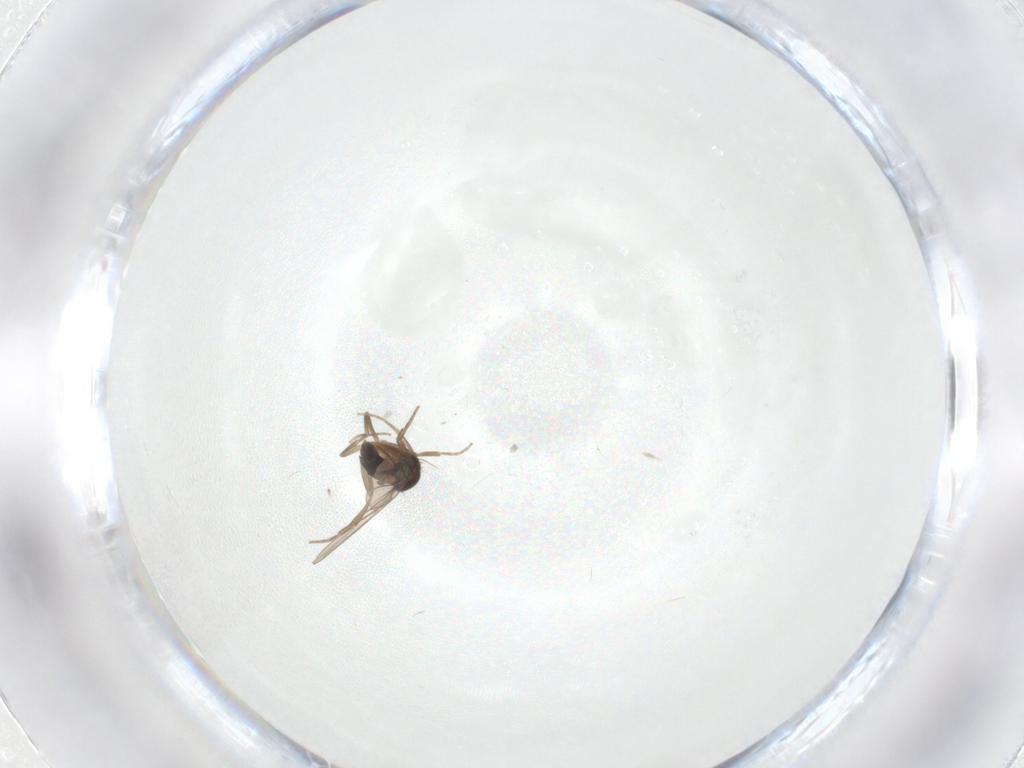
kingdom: Animalia
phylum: Arthropoda
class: Insecta
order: Diptera
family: Phoridae
